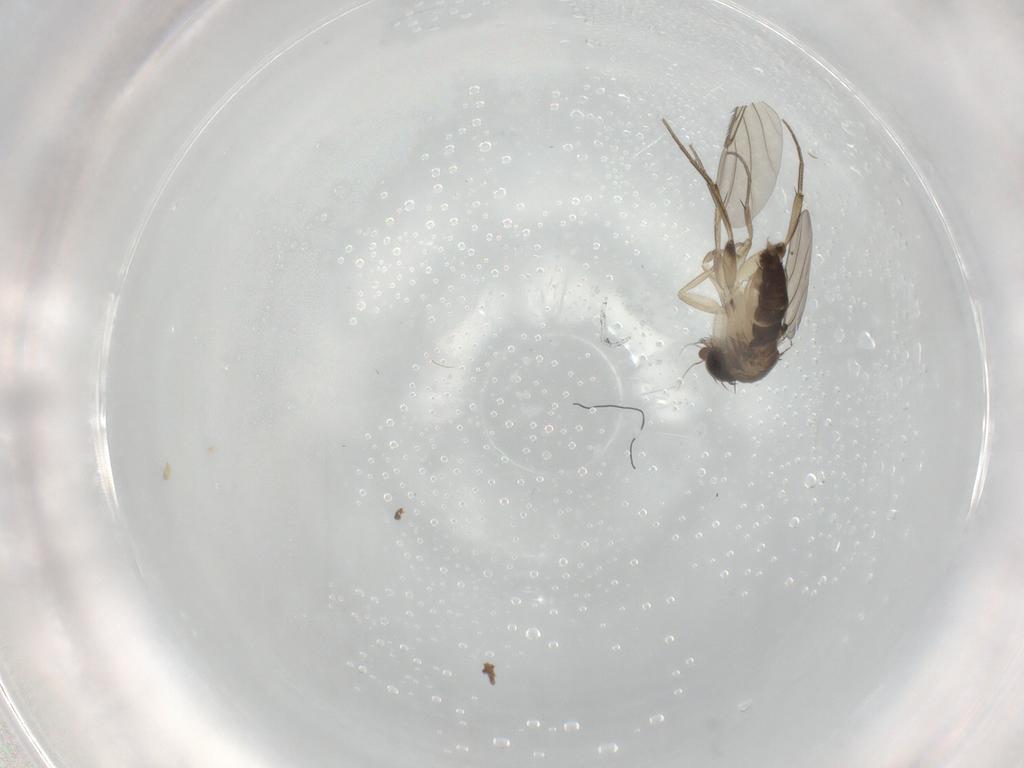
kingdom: Animalia
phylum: Arthropoda
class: Insecta
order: Diptera
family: Phoridae
